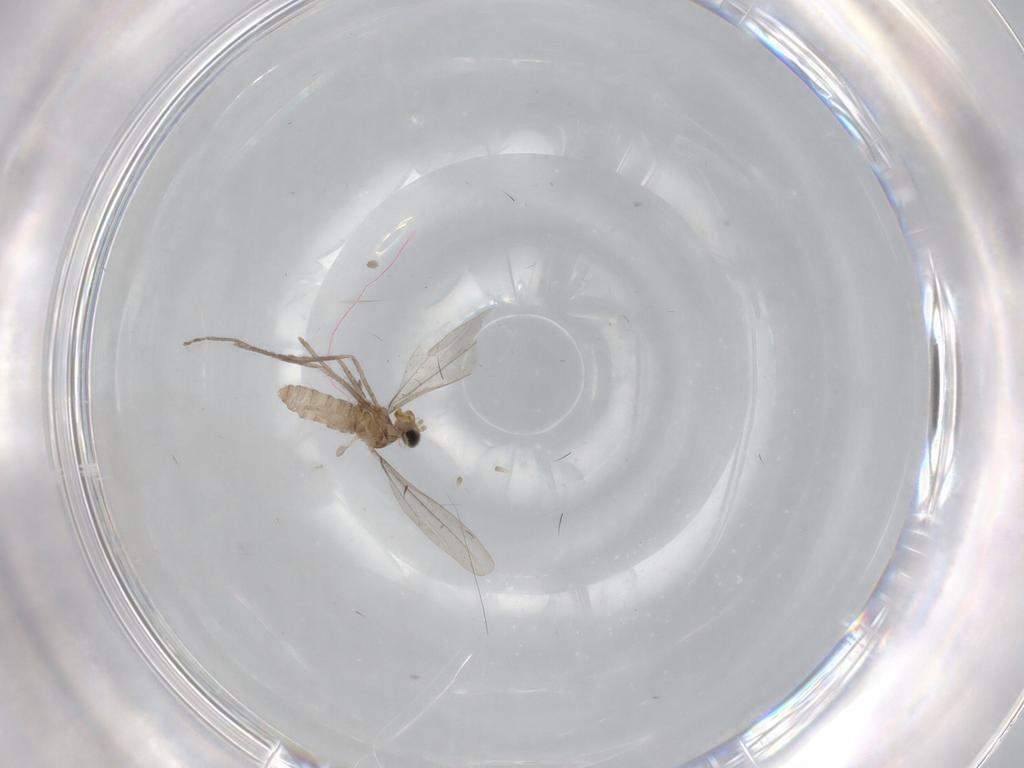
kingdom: Animalia
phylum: Arthropoda
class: Insecta
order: Diptera
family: Cecidomyiidae
